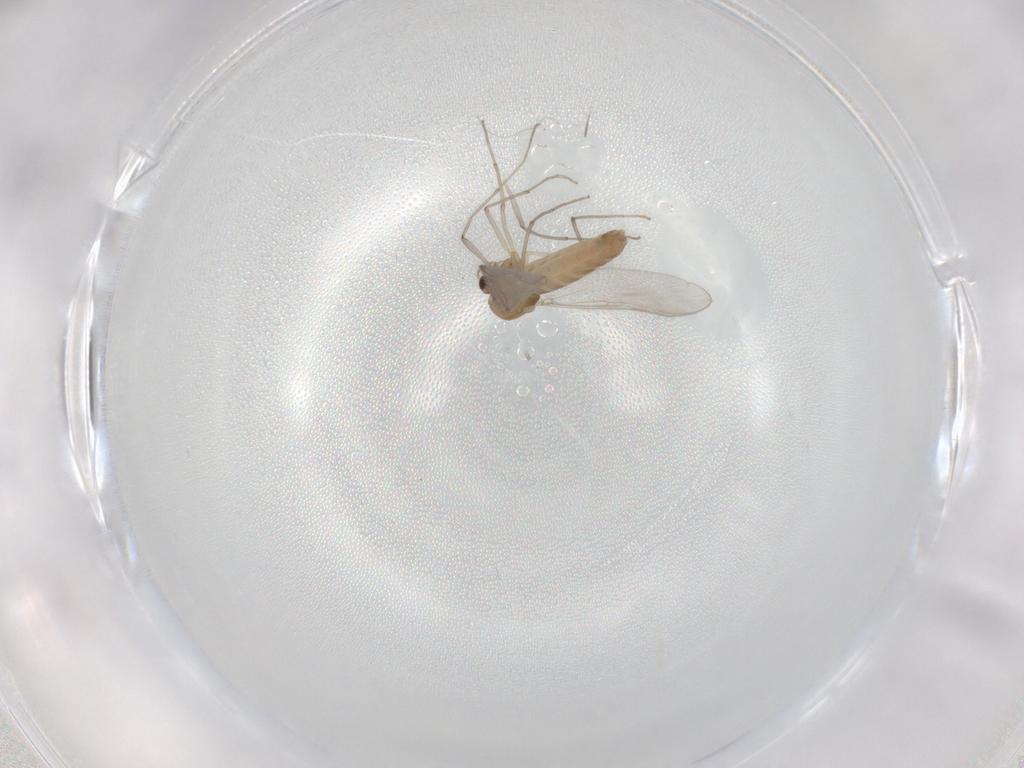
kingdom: Animalia
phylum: Arthropoda
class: Insecta
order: Diptera
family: Chironomidae
